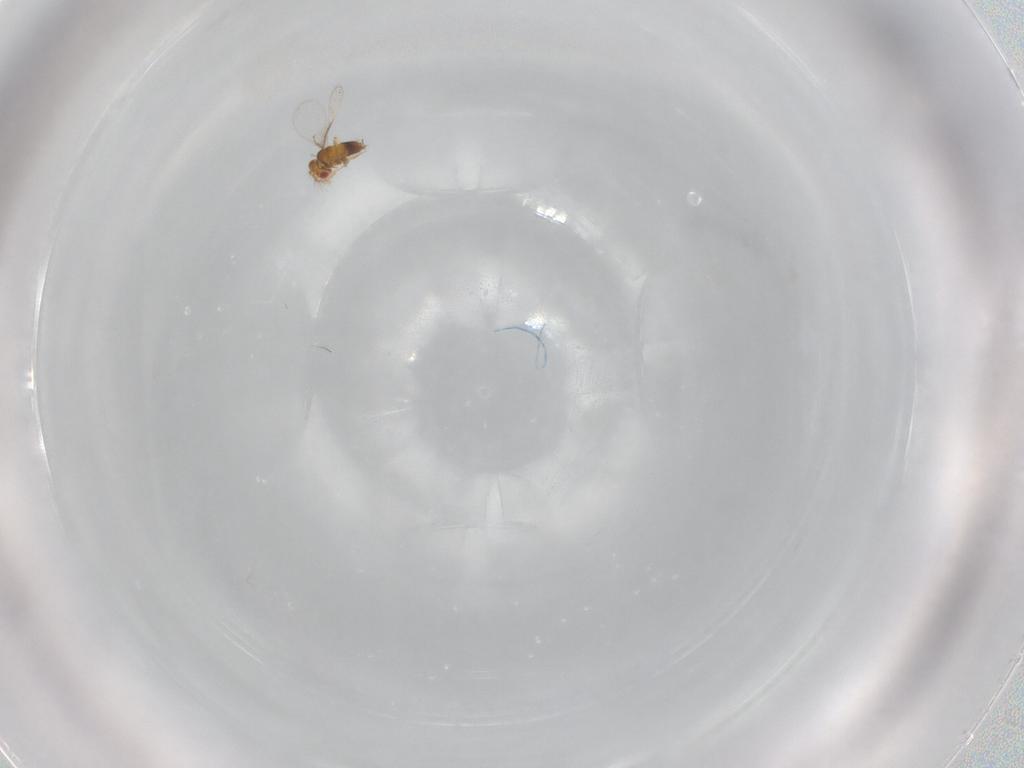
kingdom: Animalia
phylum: Arthropoda
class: Insecta
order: Hymenoptera
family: Trichogrammatidae
